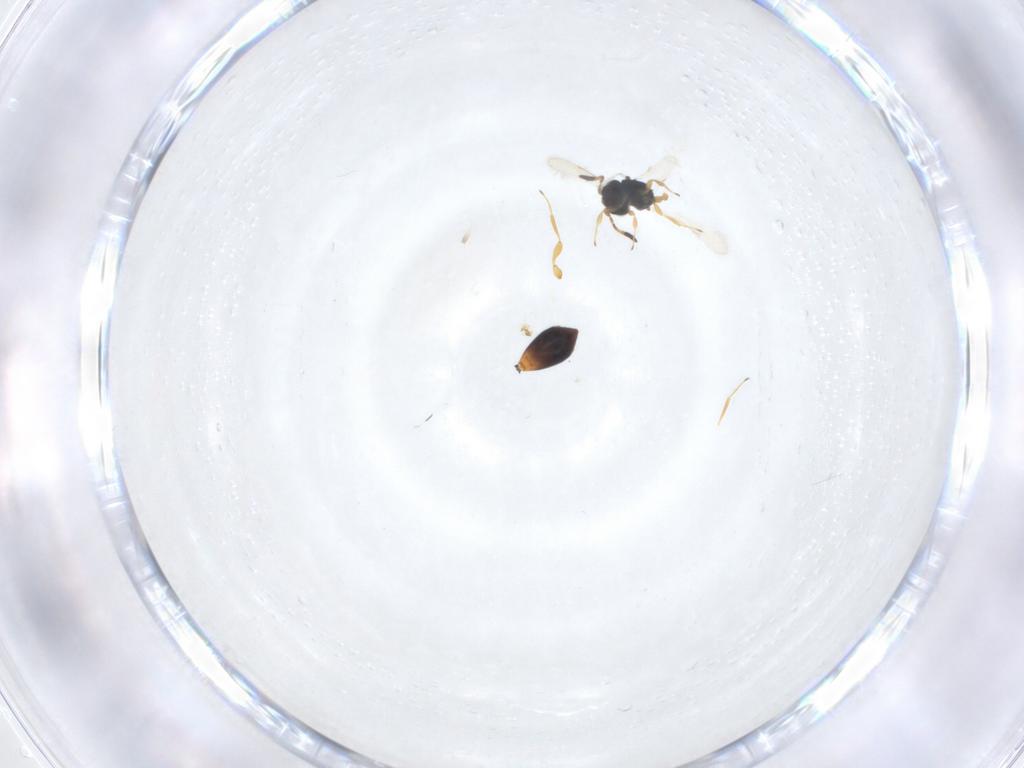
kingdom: Animalia
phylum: Arthropoda
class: Insecta
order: Hymenoptera
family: Scelionidae
